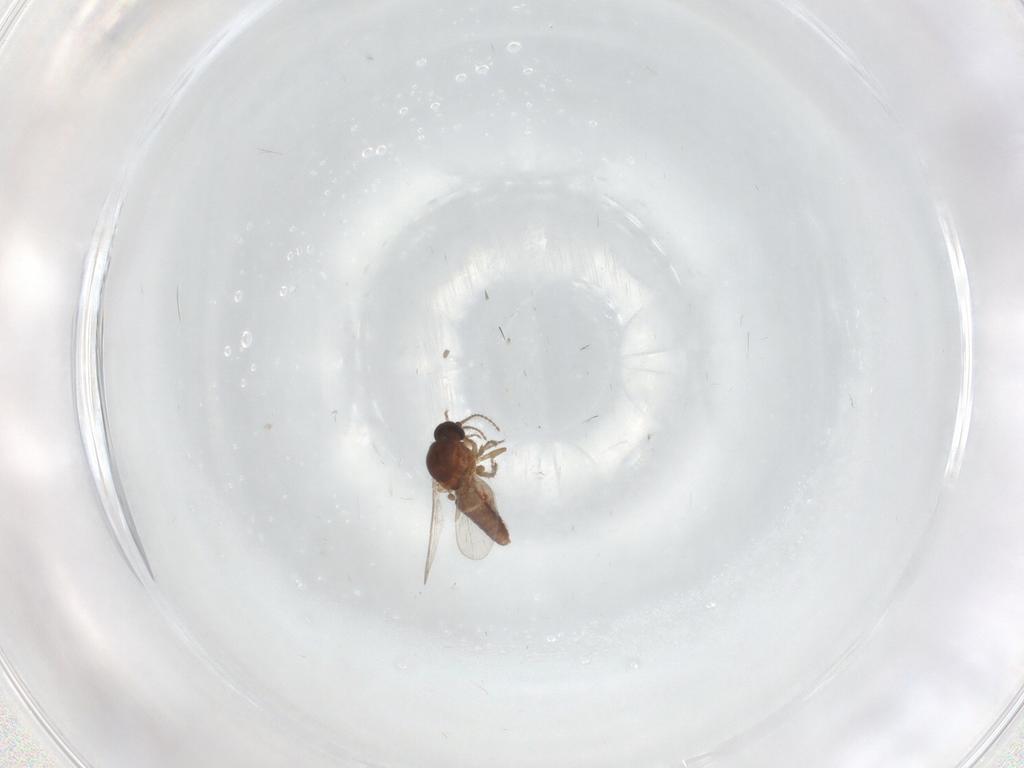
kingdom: Animalia
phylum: Arthropoda
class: Insecta
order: Diptera
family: Ceratopogonidae
